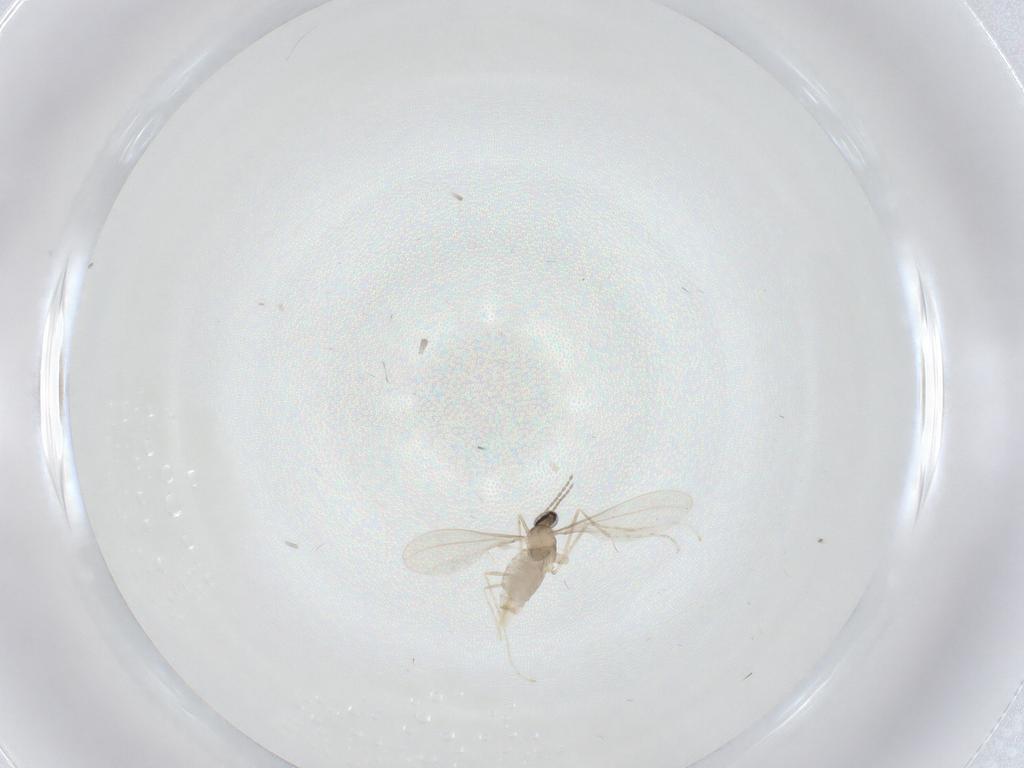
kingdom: Animalia
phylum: Arthropoda
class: Insecta
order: Diptera
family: Cecidomyiidae
